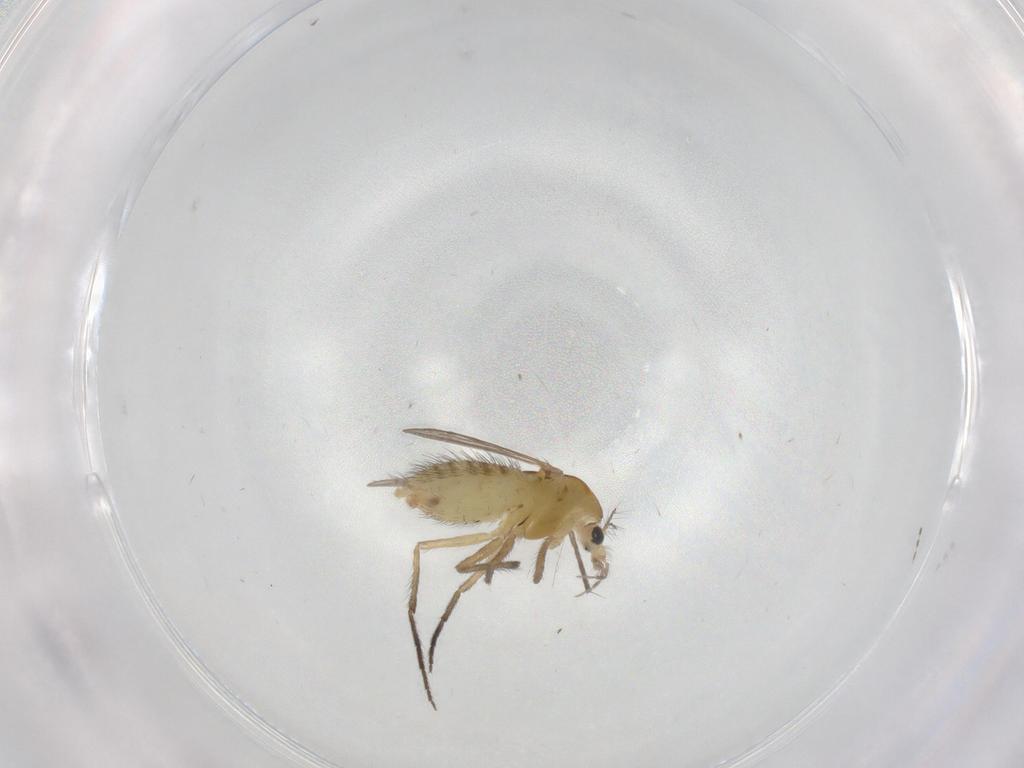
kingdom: Animalia
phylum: Arthropoda
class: Insecta
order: Diptera
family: Chironomidae
